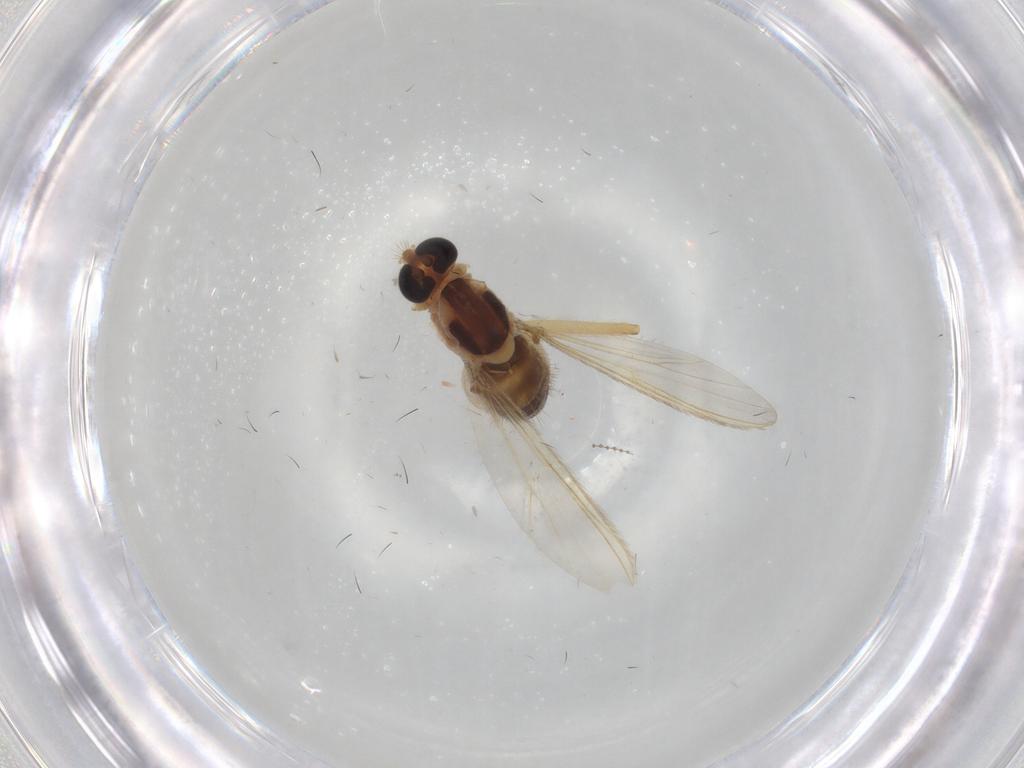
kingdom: Animalia
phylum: Arthropoda
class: Insecta
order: Diptera
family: Chironomidae
